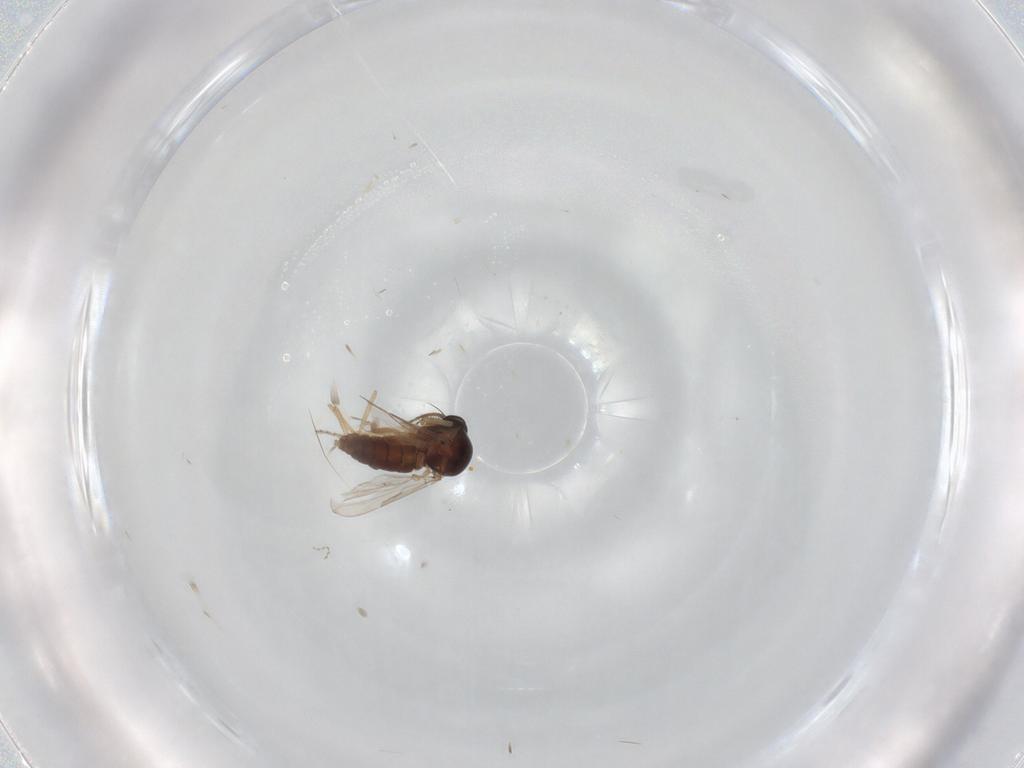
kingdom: Animalia
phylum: Arthropoda
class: Insecta
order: Diptera
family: Ceratopogonidae
